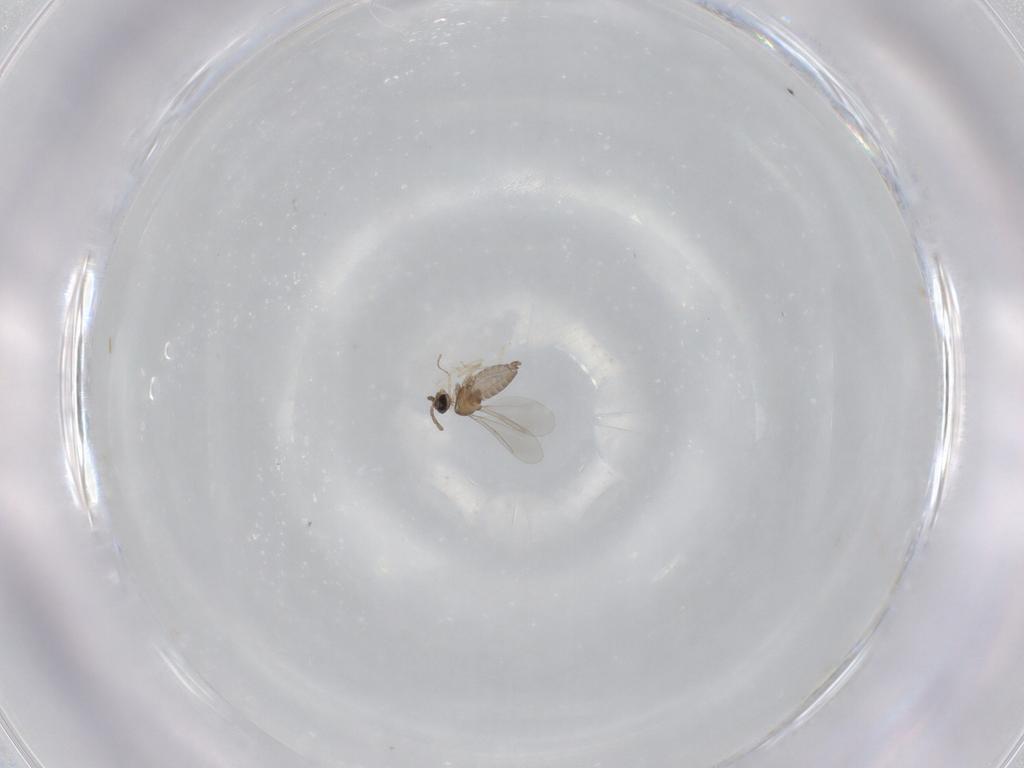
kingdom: Animalia
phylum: Arthropoda
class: Insecta
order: Diptera
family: Cecidomyiidae
